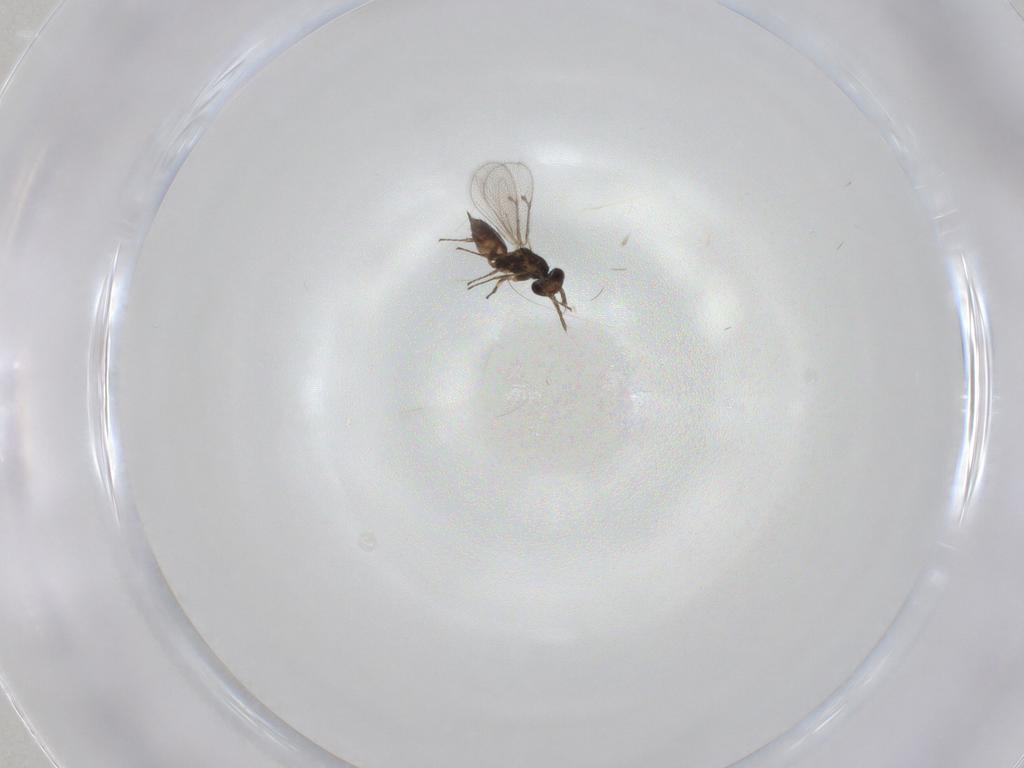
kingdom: Animalia
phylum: Arthropoda
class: Insecta
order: Hymenoptera
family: Eulophidae
